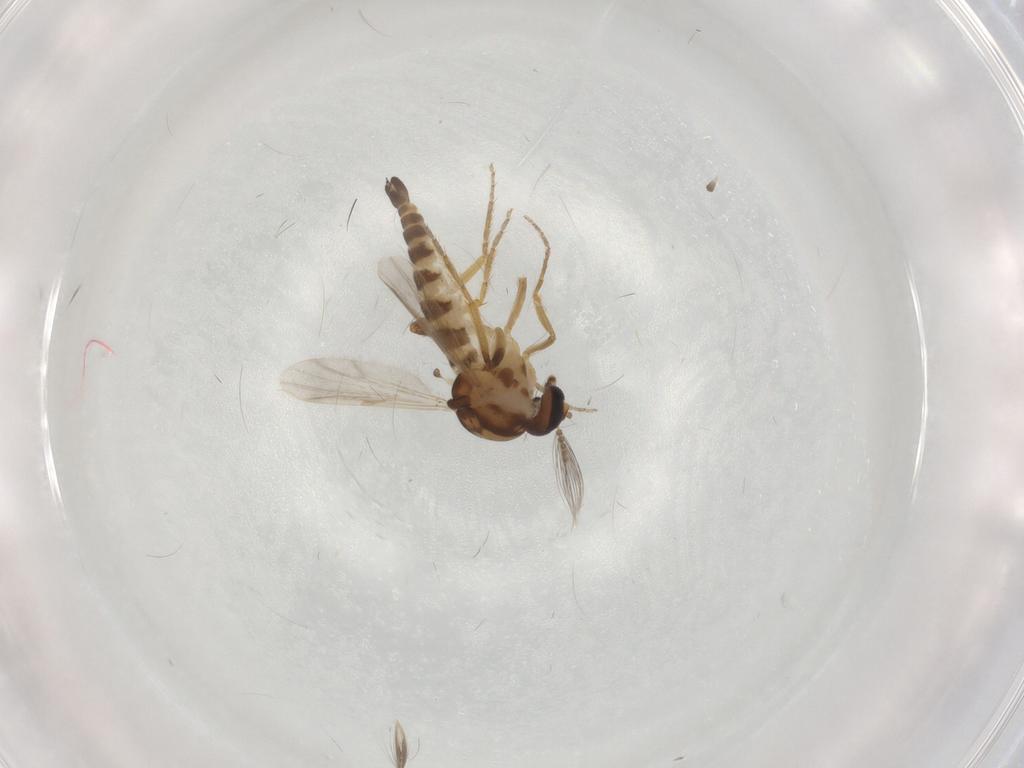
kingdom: Animalia
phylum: Arthropoda
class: Insecta
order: Diptera
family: Ceratopogonidae
